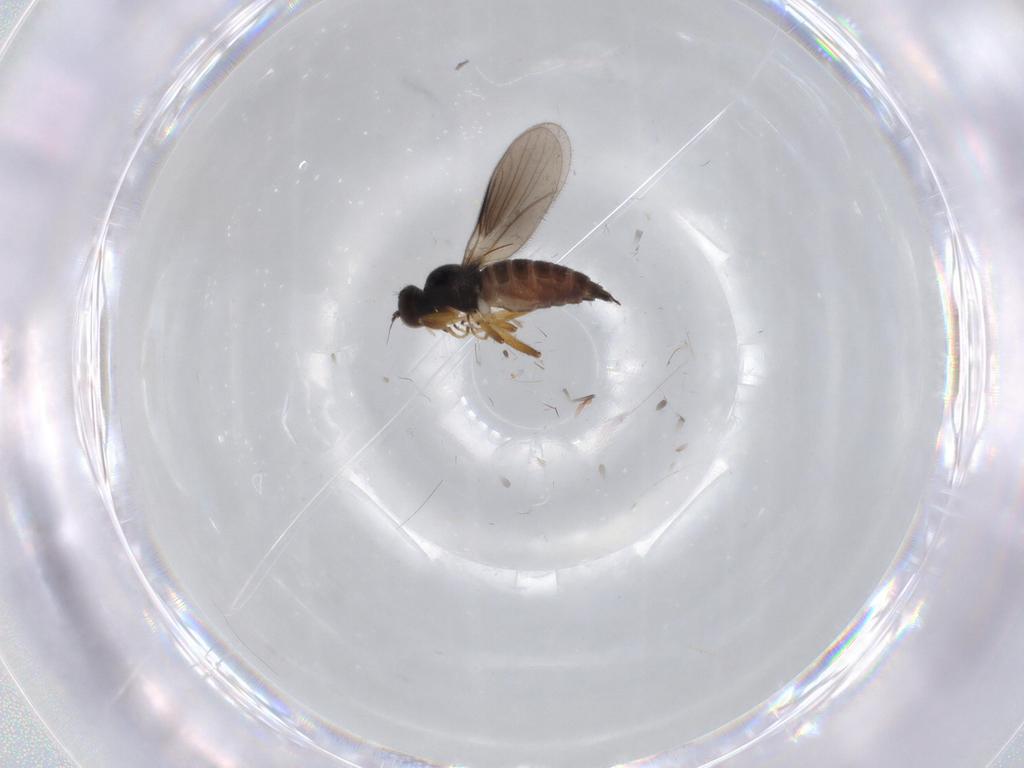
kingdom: Animalia
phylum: Arthropoda
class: Insecta
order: Diptera
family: Hybotidae
